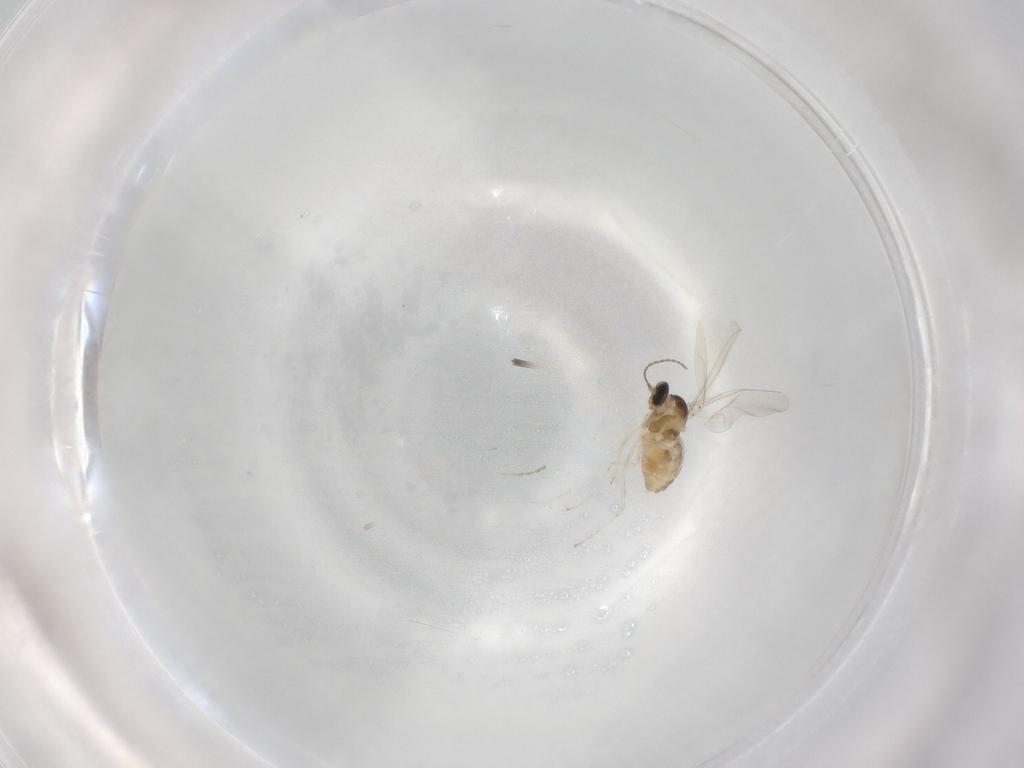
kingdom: Animalia
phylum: Arthropoda
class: Insecta
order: Diptera
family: Cecidomyiidae
